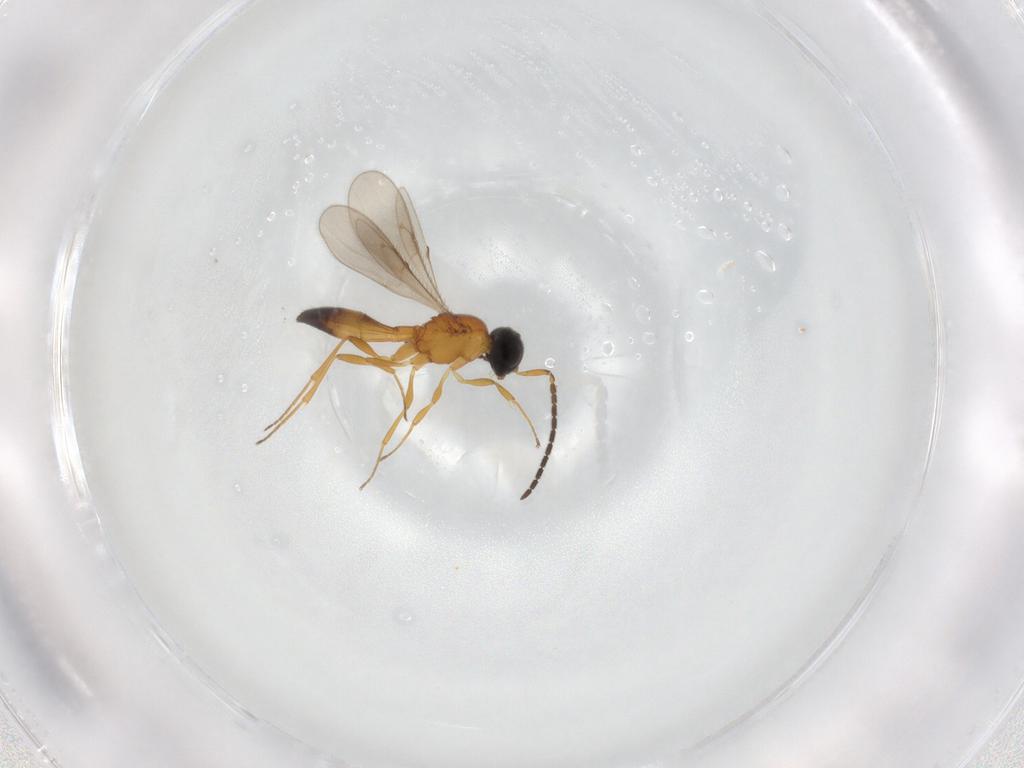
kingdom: Animalia
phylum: Arthropoda
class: Insecta
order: Hymenoptera
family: Scelionidae
